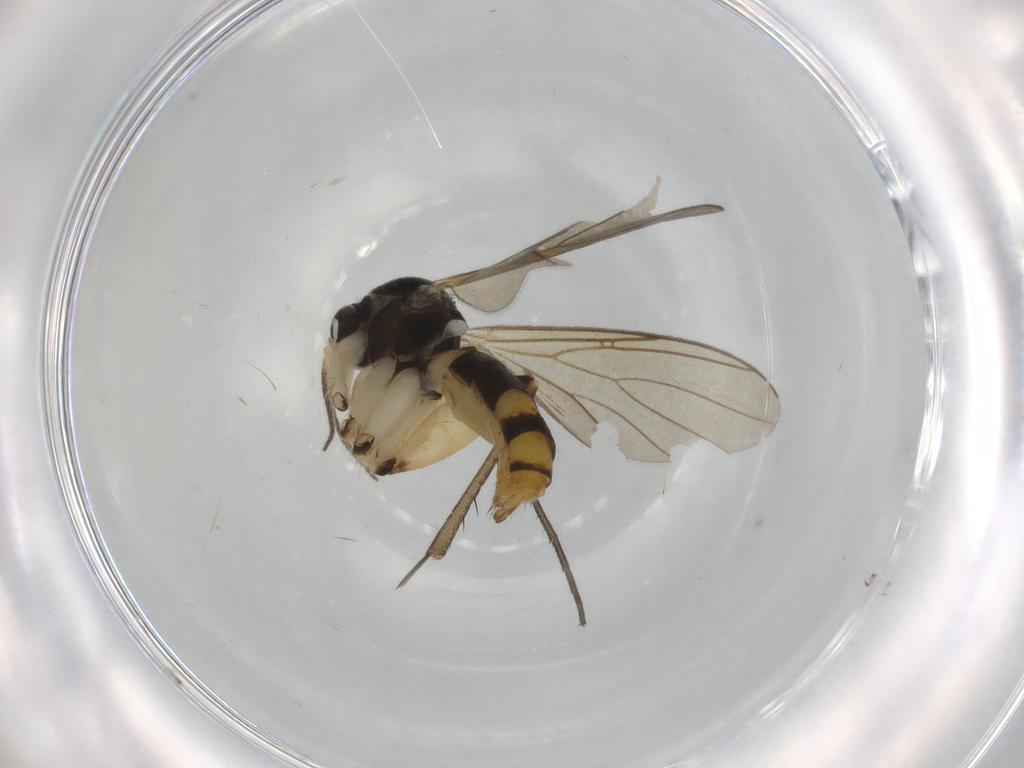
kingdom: Animalia
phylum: Arthropoda
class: Insecta
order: Diptera
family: Mycetophilidae
